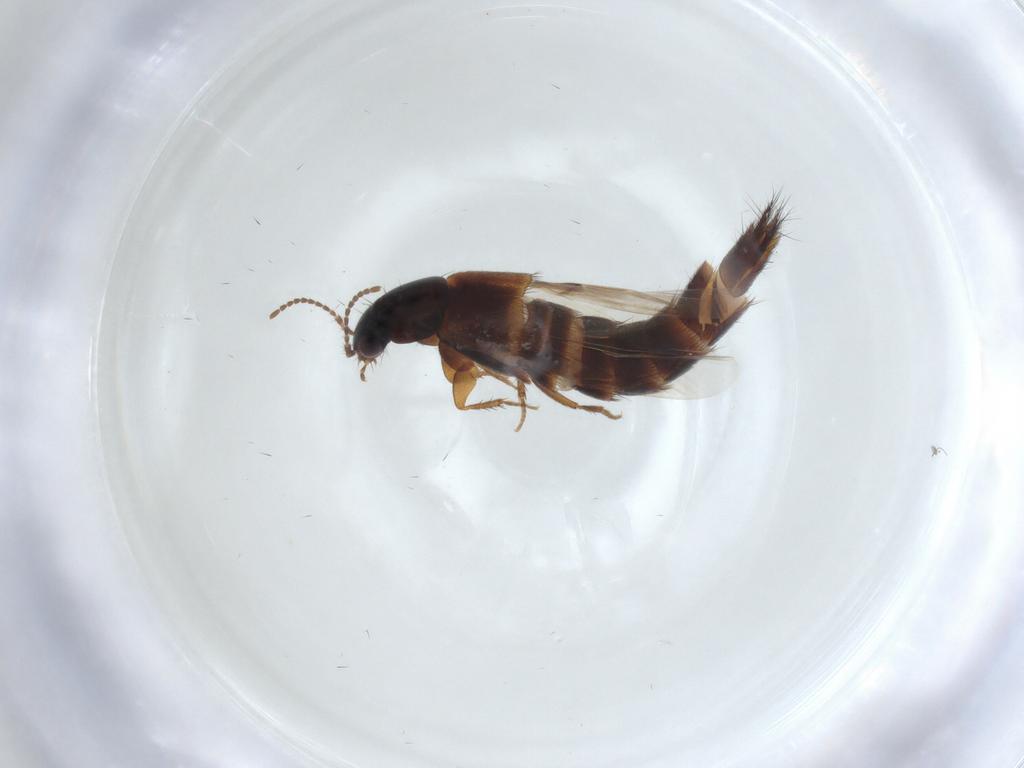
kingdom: Animalia
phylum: Arthropoda
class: Insecta
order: Coleoptera
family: Staphylinidae
